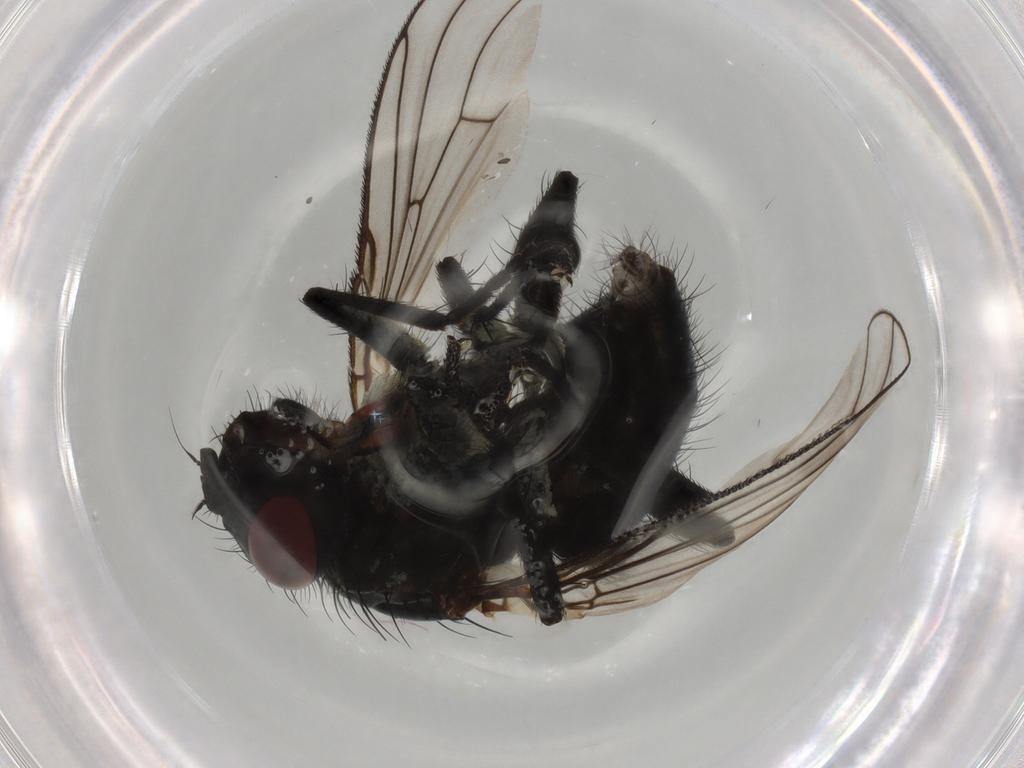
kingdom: Animalia
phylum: Arthropoda
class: Insecta
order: Diptera
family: Muscidae
